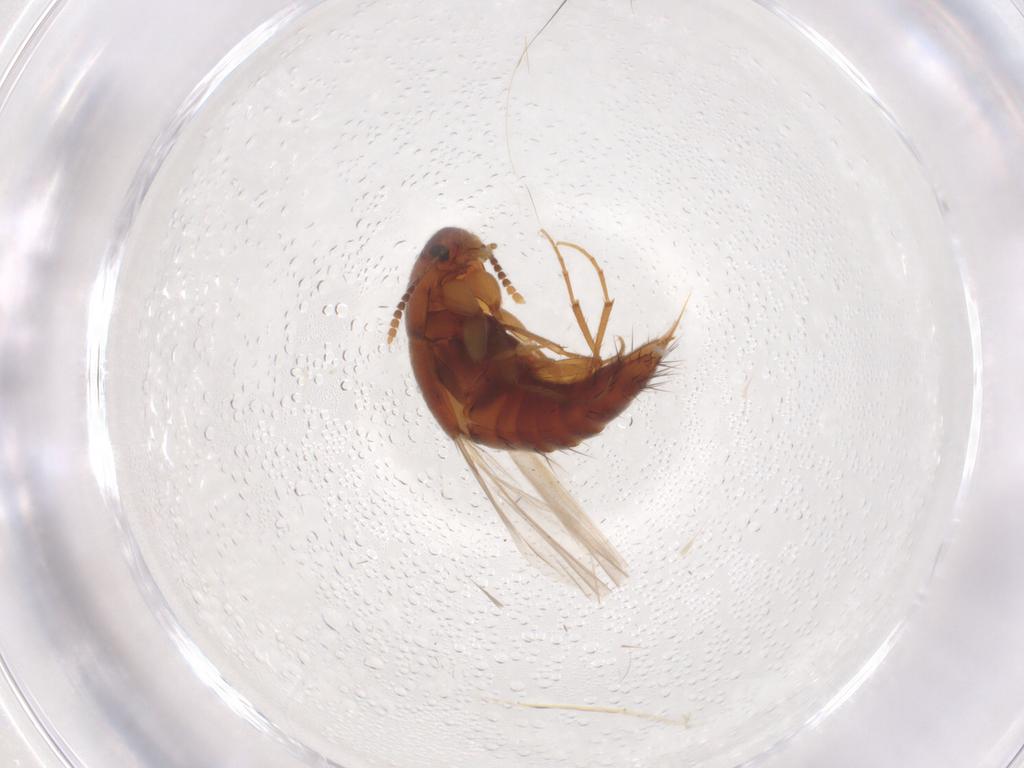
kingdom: Animalia
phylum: Arthropoda
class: Insecta
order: Coleoptera
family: Staphylinidae
